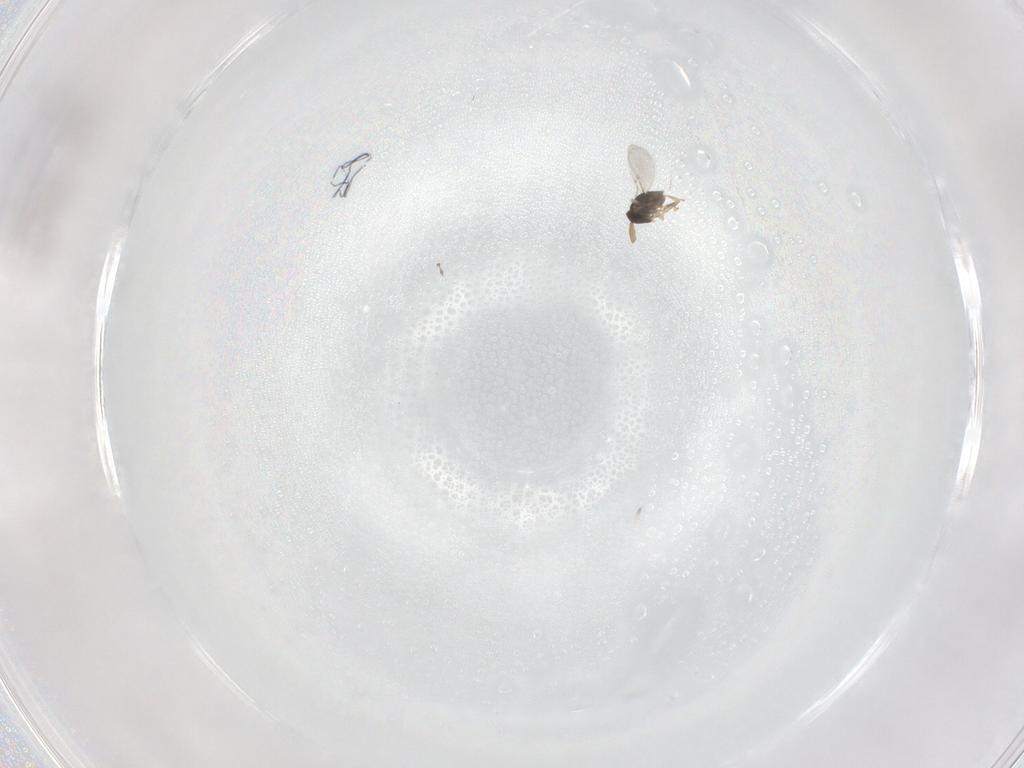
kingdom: Animalia
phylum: Arthropoda
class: Insecta
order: Hymenoptera
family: Encyrtidae
